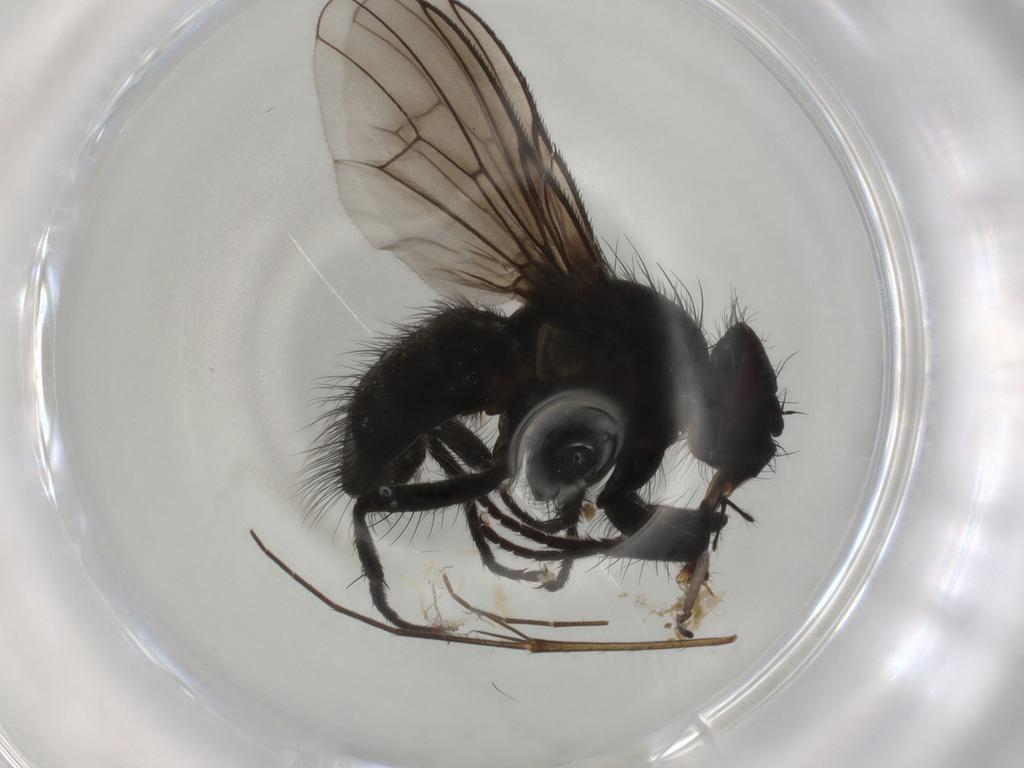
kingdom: Animalia
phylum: Arthropoda
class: Insecta
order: Diptera
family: Muscidae
